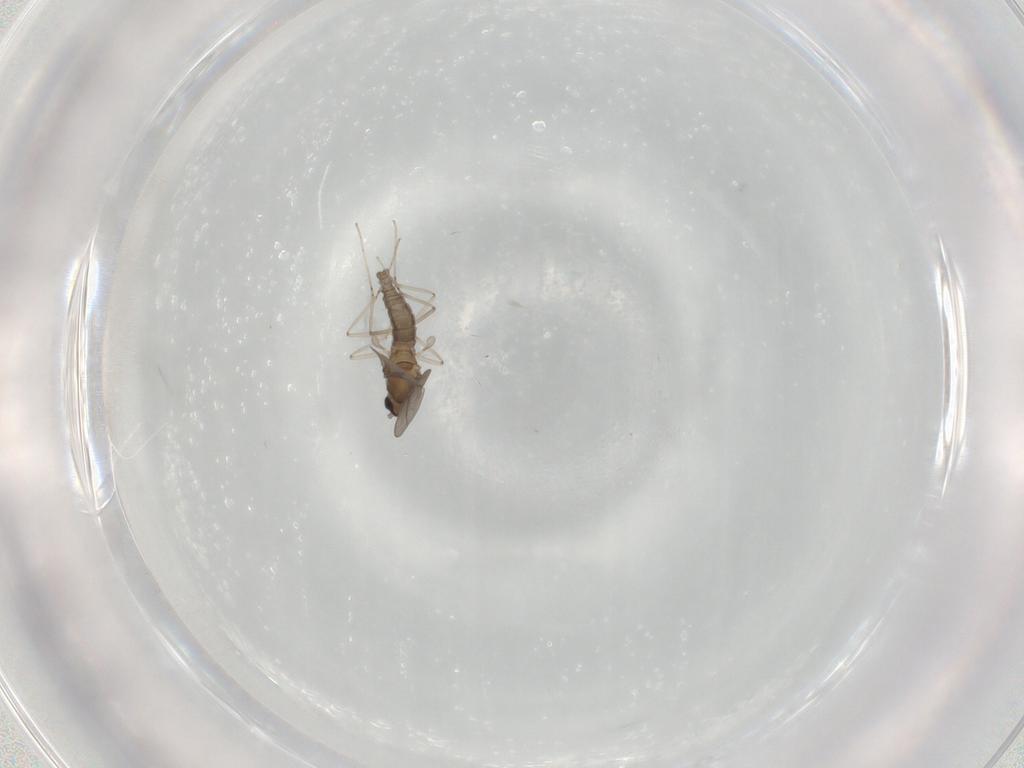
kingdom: Animalia
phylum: Arthropoda
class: Insecta
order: Diptera
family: Cecidomyiidae
